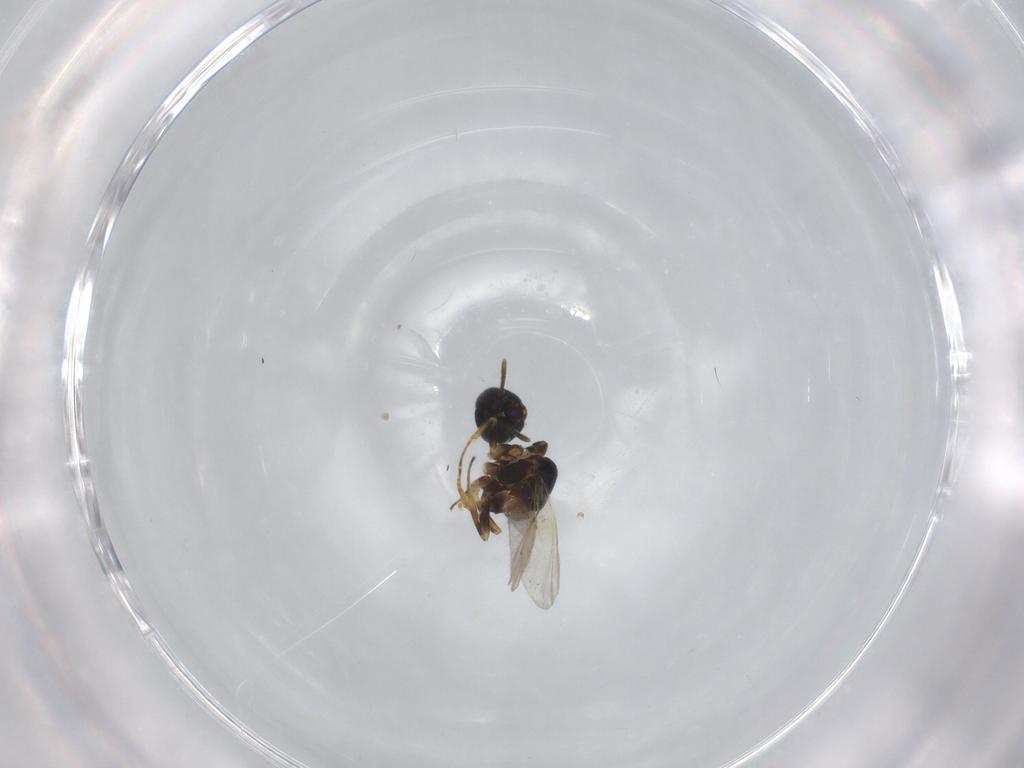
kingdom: Animalia
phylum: Arthropoda
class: Insecta
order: Hymenoptera
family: Encyrtidae
